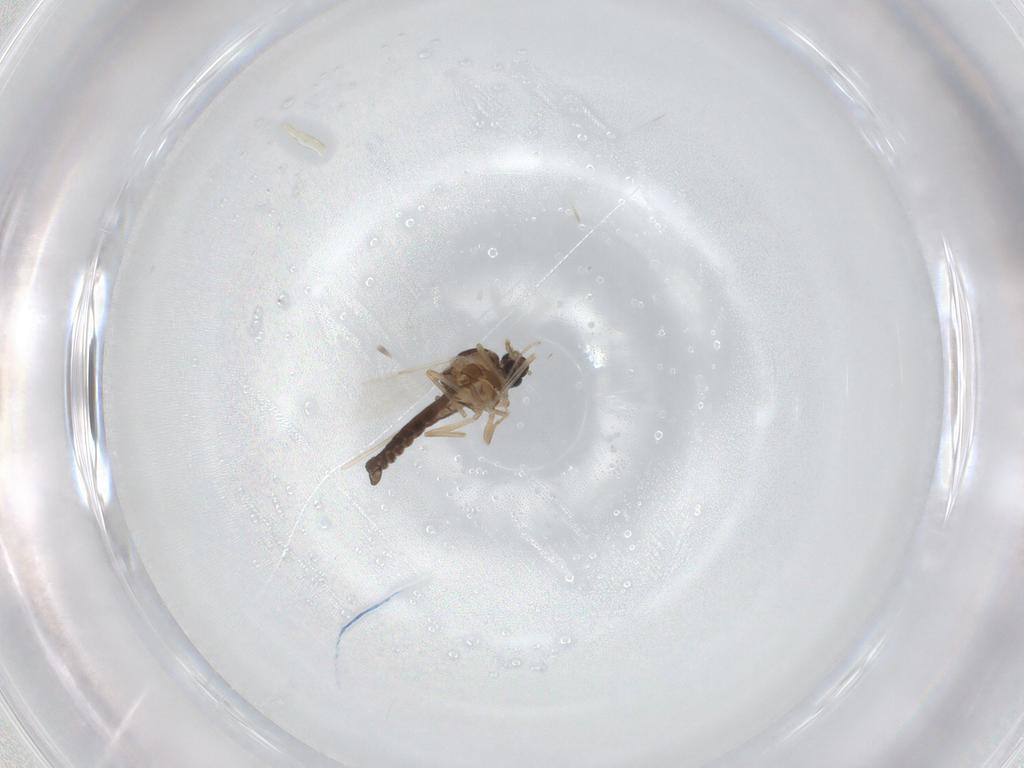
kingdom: Animalia
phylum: Arthropoda
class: Insecta
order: Diptera
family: Ceratopogonidae
